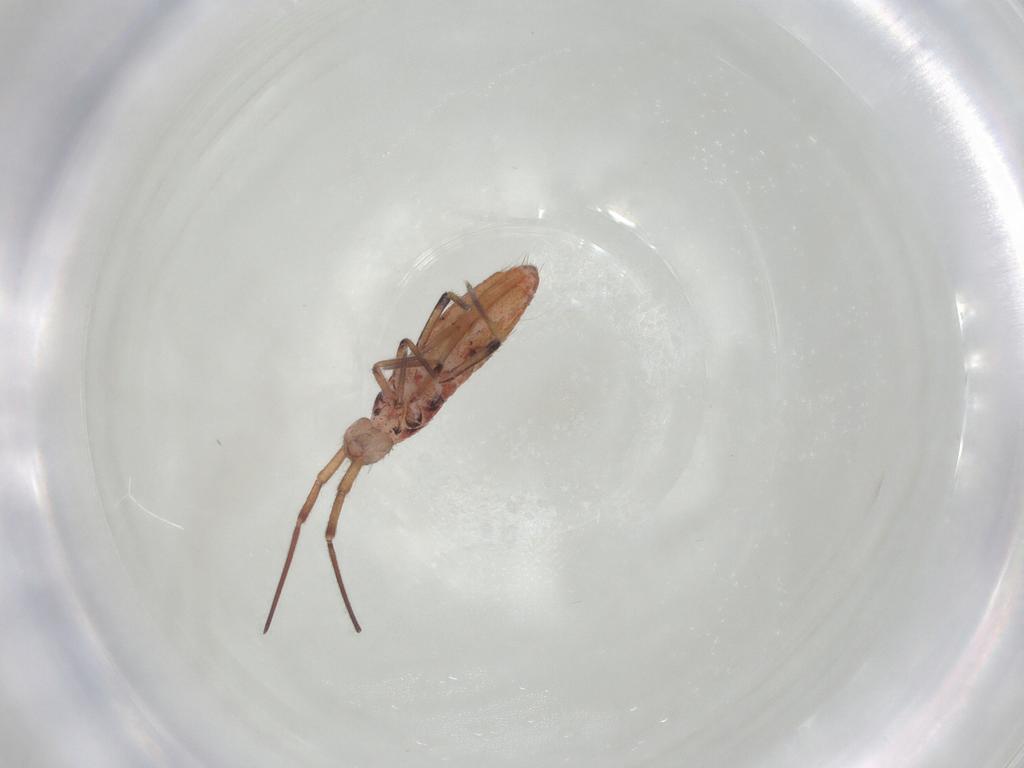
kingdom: Animalia
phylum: Arthropoda
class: Collembola
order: Entomobryomorpha
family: Entomobryidae
